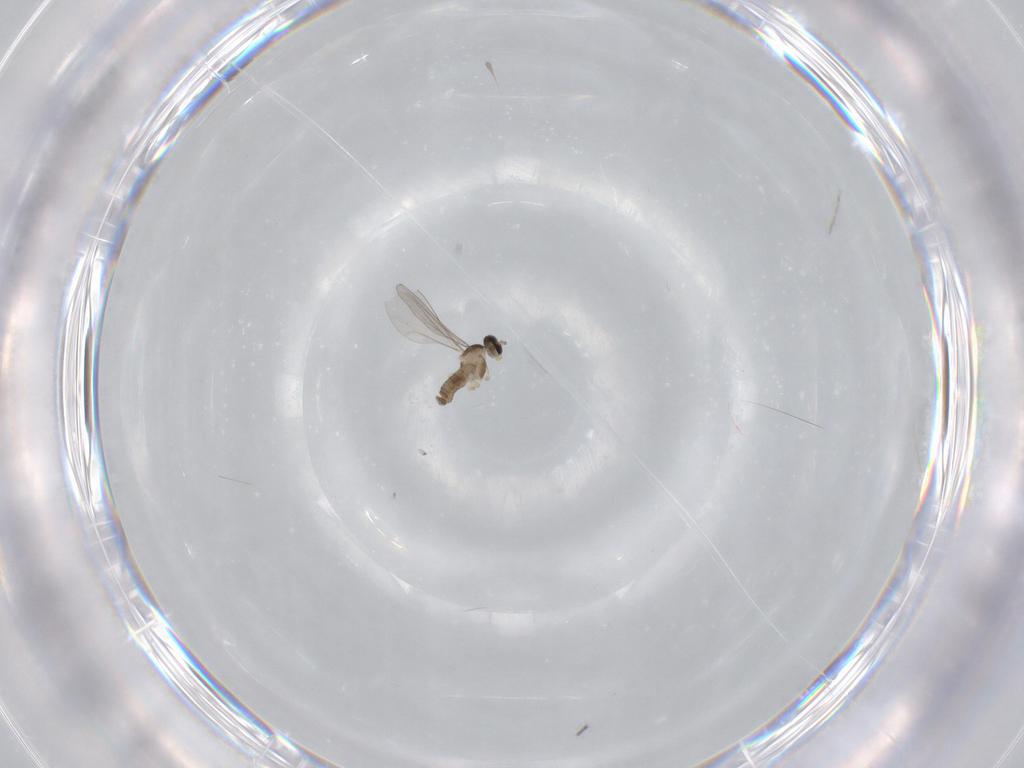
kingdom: Animalia
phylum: Arthropoda
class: Insecta
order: Diptera
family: Cecidomyiidae
